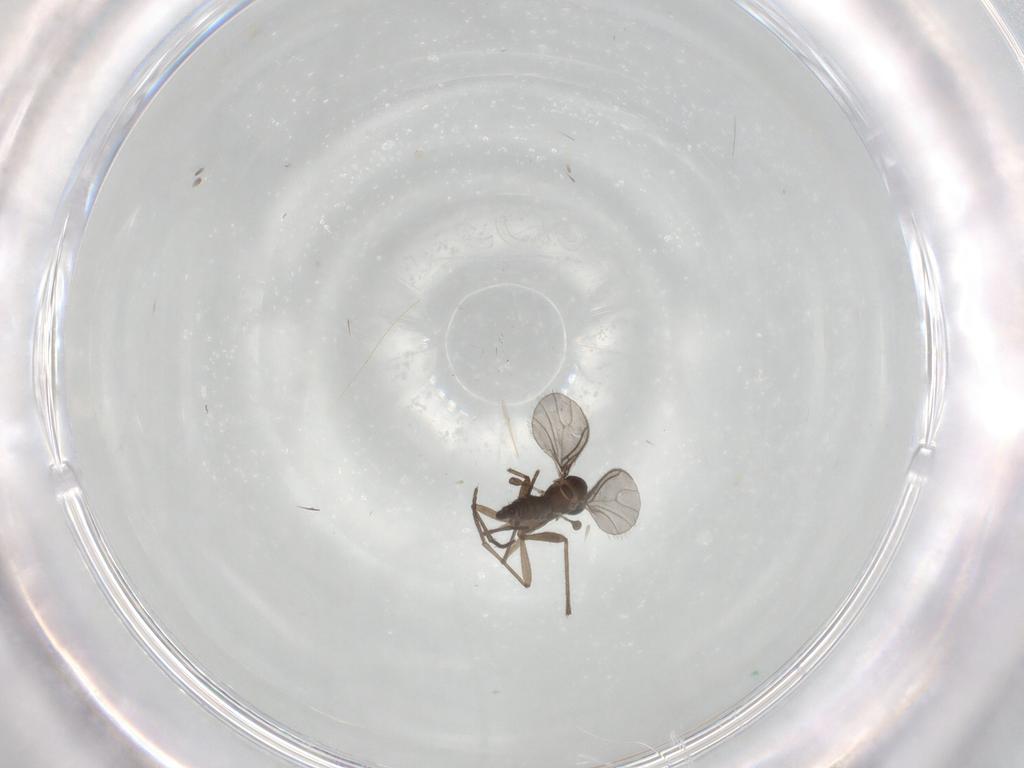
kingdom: Animalia
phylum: Arthropoda
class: Insecta
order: Diptera
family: Sciaridae
